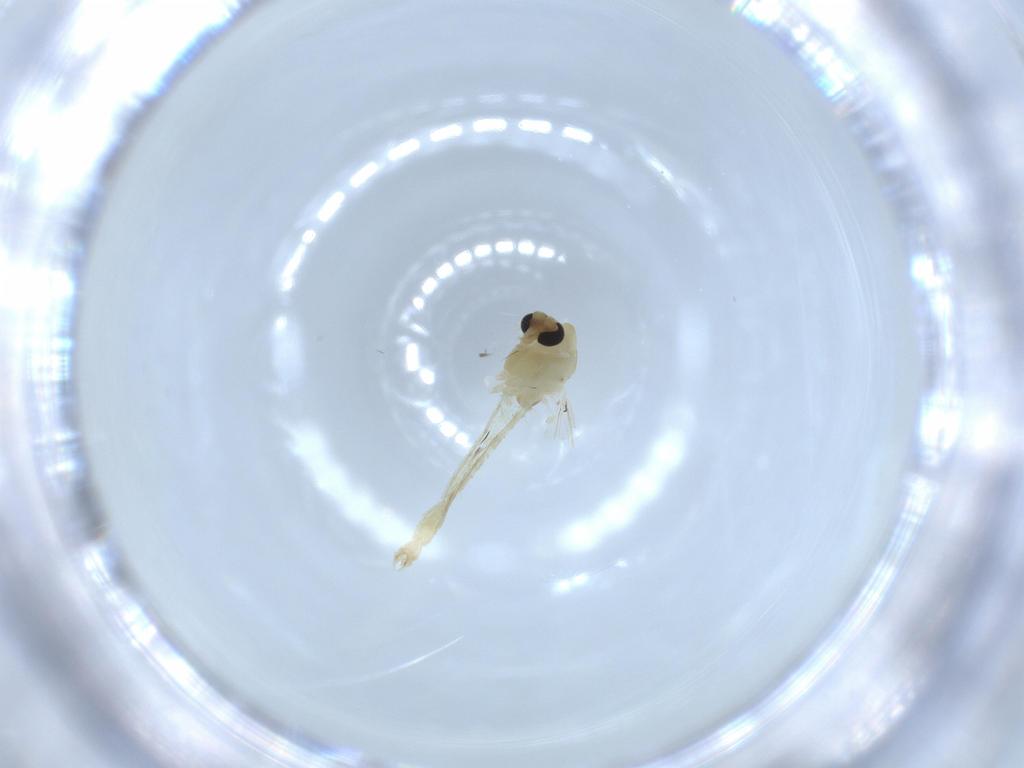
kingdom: Animalia
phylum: Arthropoda
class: Insecta
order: Diptera
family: Chironomidae
